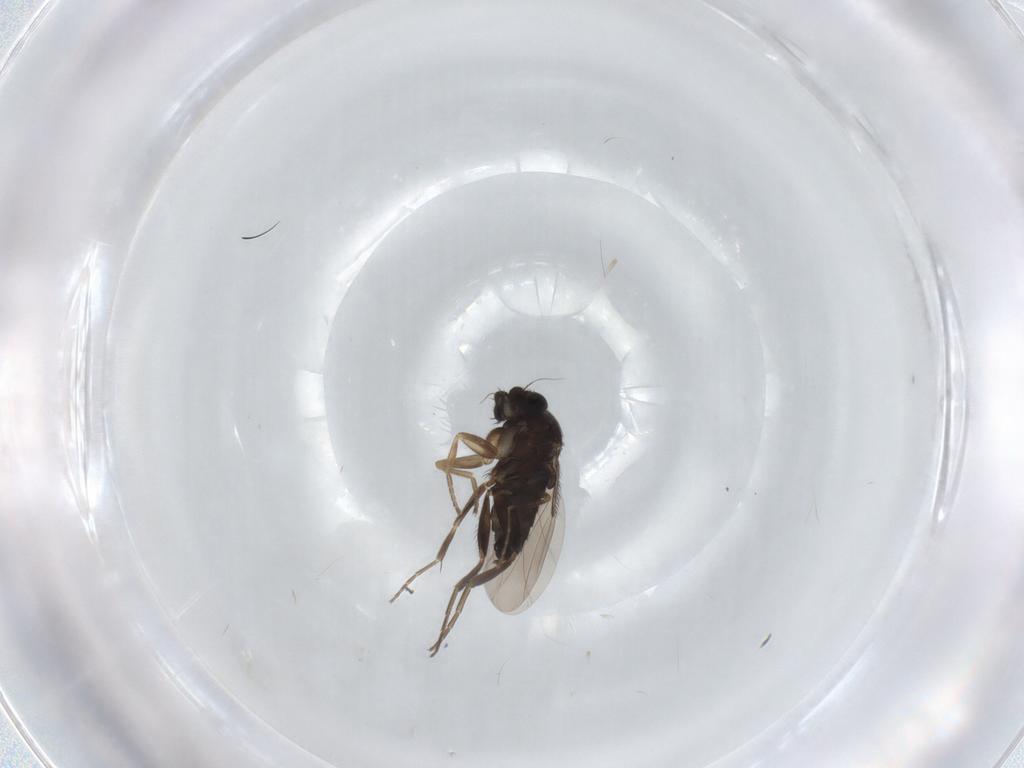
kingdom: Animalia
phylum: Arthropoda
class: Insecta
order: Diptera
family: Phoridae
